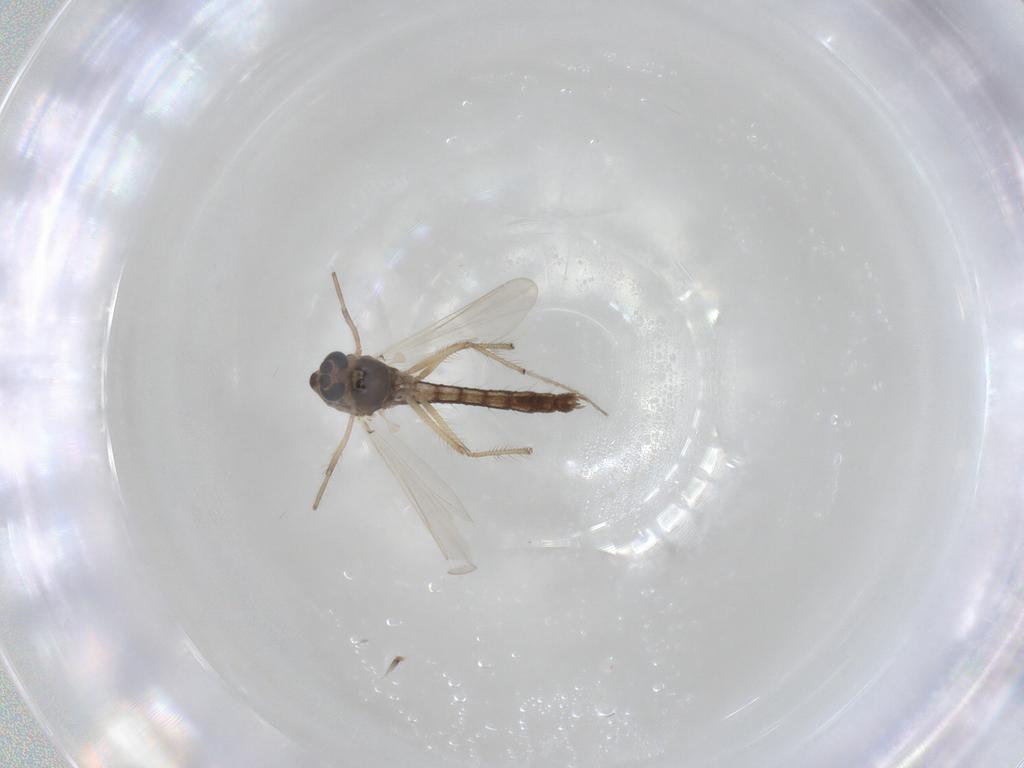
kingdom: Animalia
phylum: Arthropoda
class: Insecta
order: Diptera
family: Chironomidae
